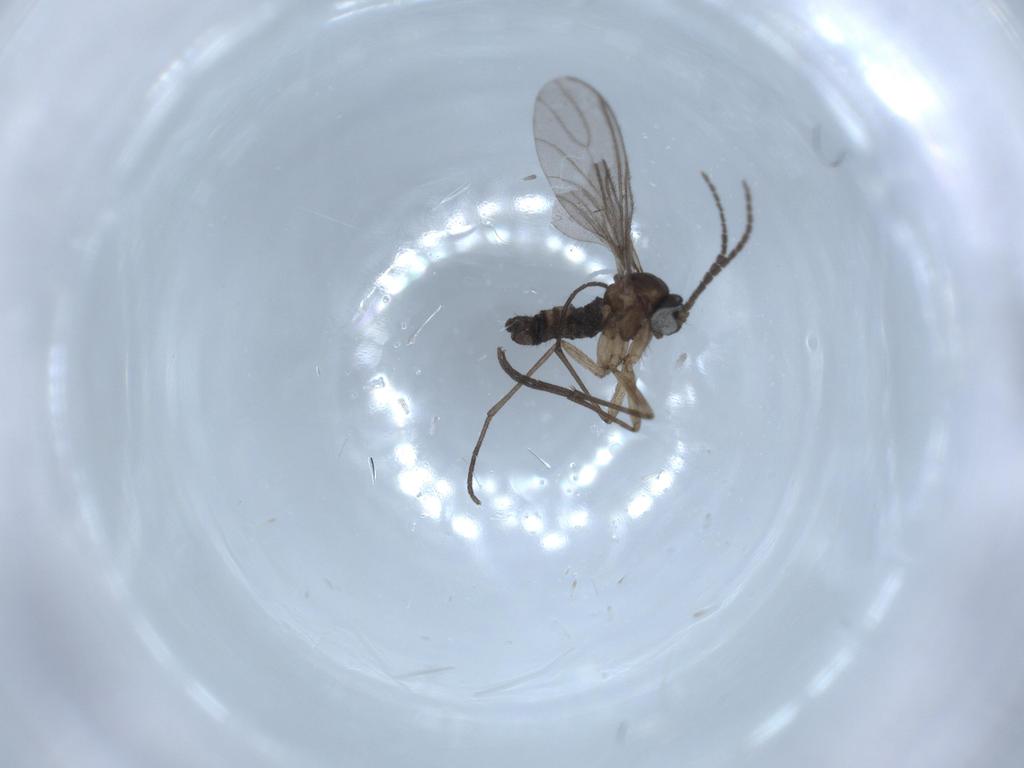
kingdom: Animalia
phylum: Arthropoda
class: Insecta
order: Diptera
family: Sciaridae
